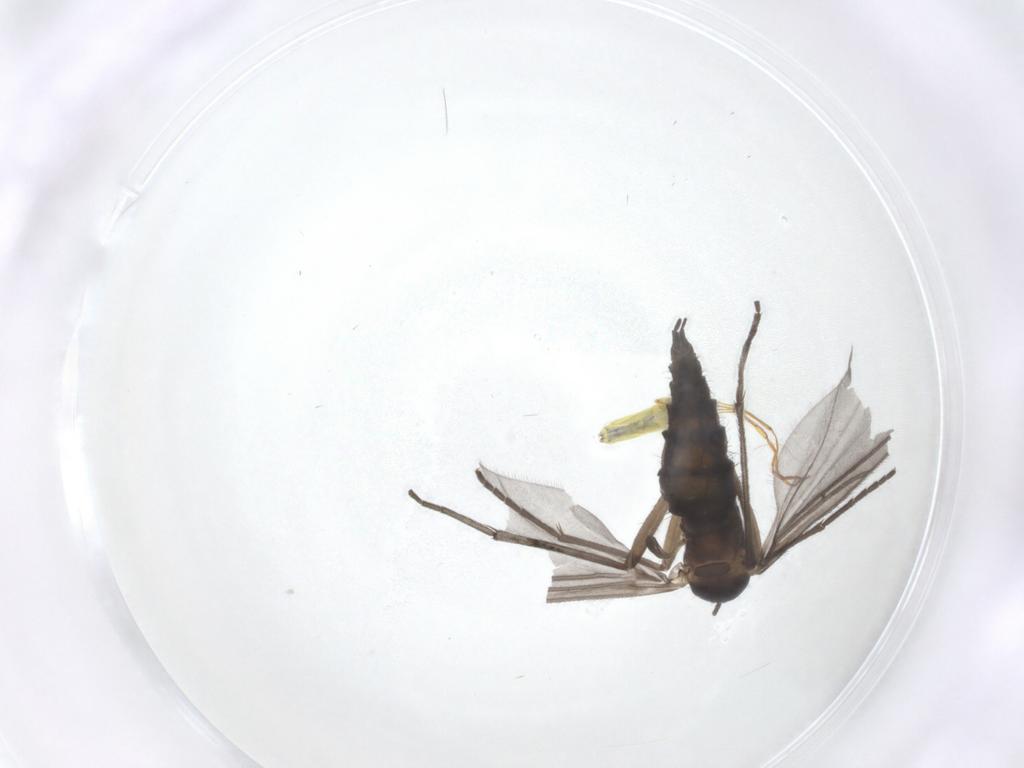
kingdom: Animalia
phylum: Arthropoda
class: Insecta
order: Diptera
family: Sciaridae
